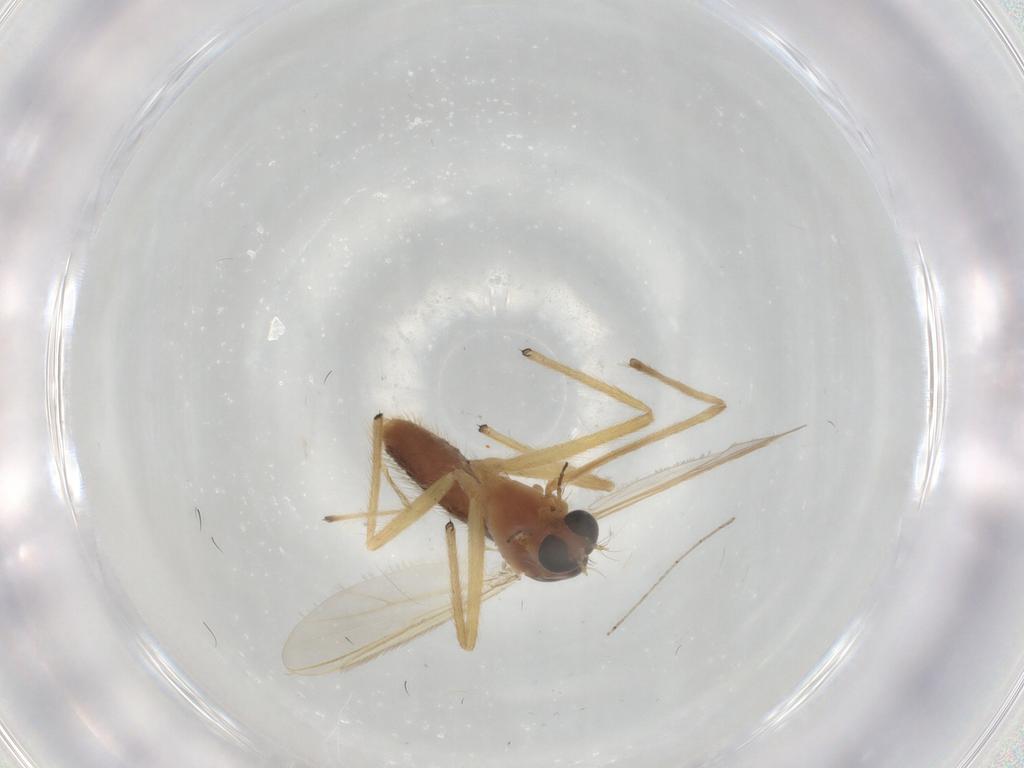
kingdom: Animalia
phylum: Arthropoda
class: Insecta
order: Diptera
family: Chironomidae
